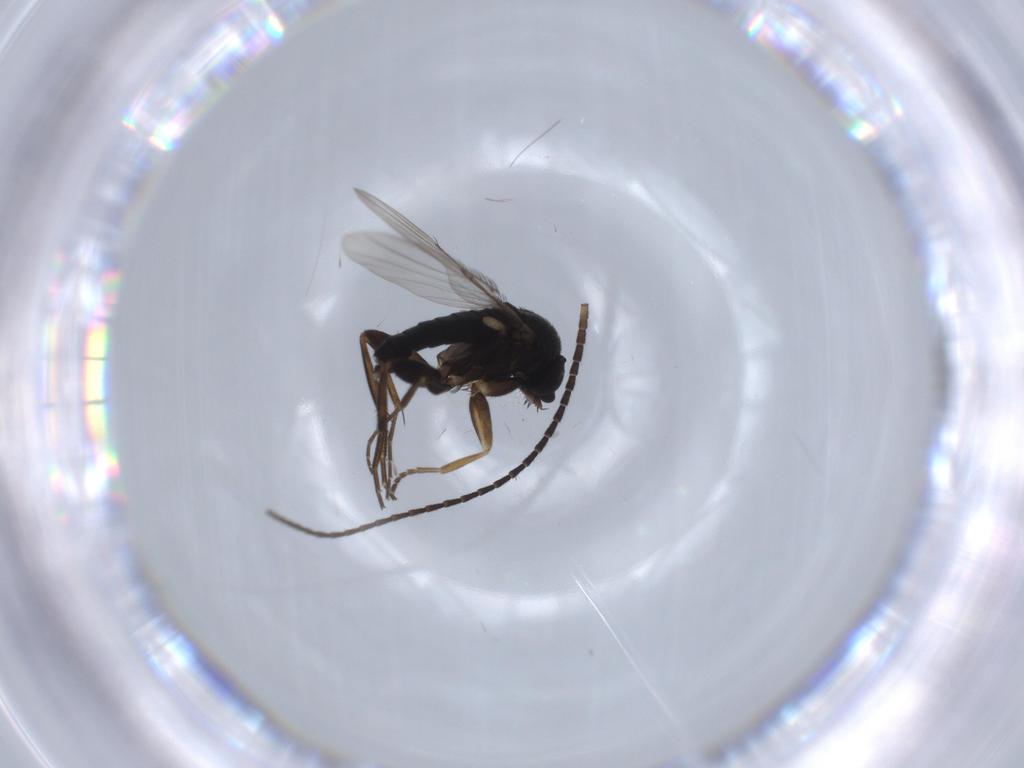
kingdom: Animalia
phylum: Arthropoda
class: Insecta
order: Diptera
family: Phoridae
